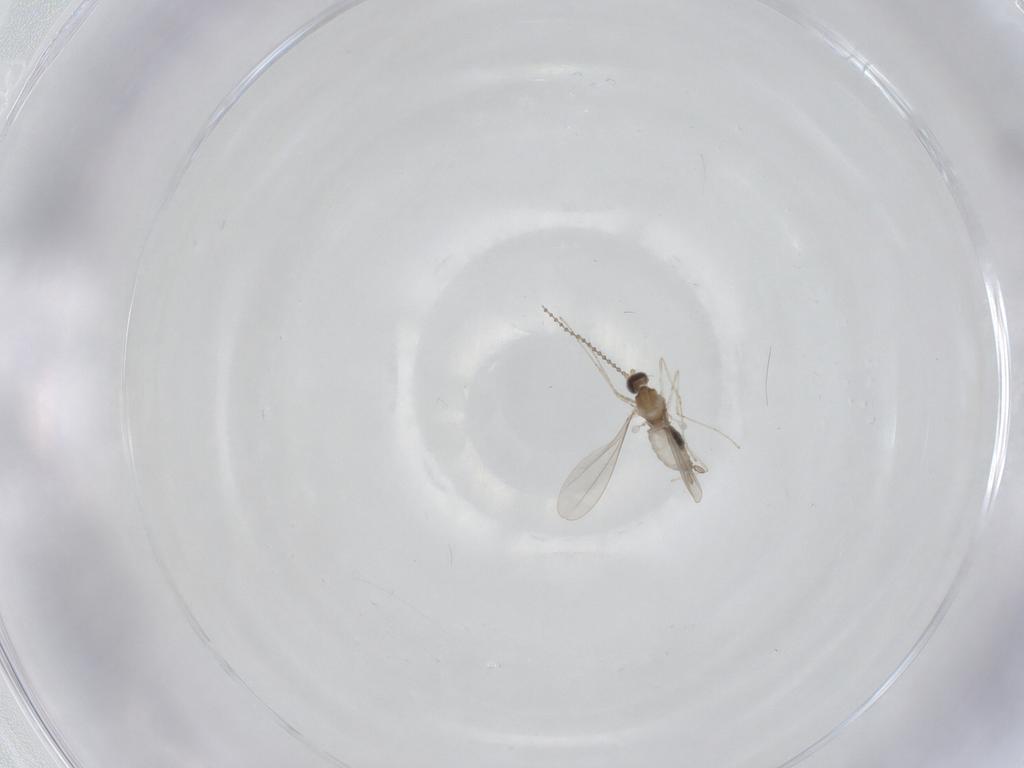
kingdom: Animalia
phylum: Arthropoda
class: Insecta
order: Diptera
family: Cecidomyiidae
